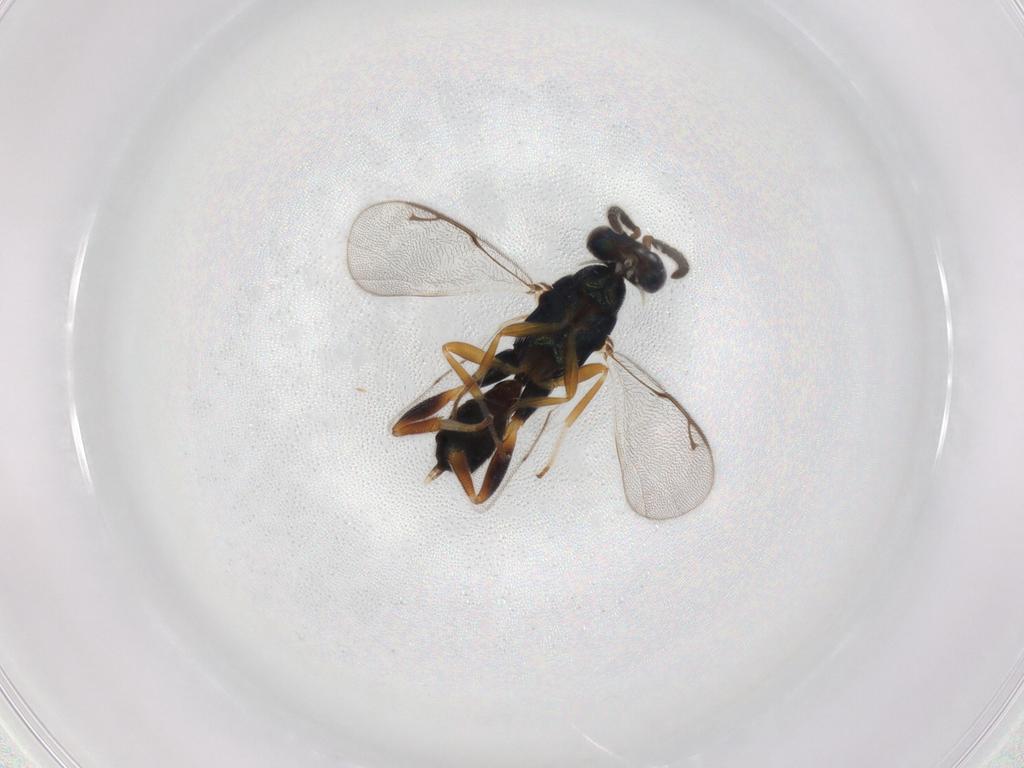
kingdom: Animalia
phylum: Arthropoda
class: Insecta
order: Hymenoptera
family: Cleonyminae
